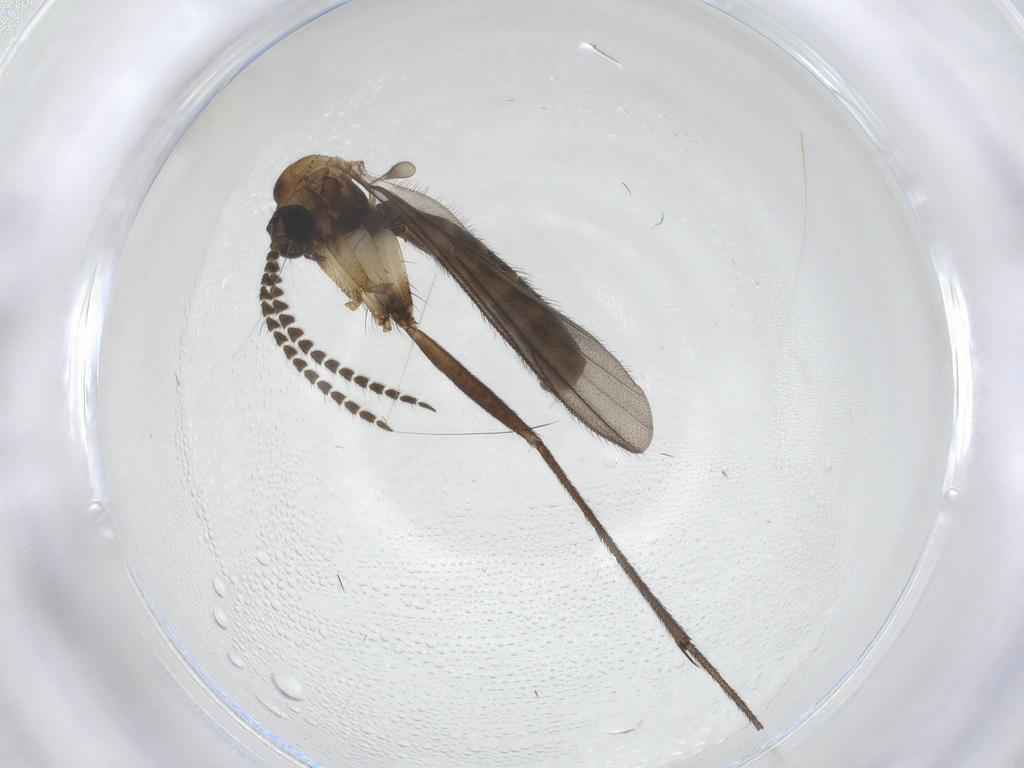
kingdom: Animalia
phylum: Arthropoda
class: Insecta
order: Diptera
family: Ditomyiidae
